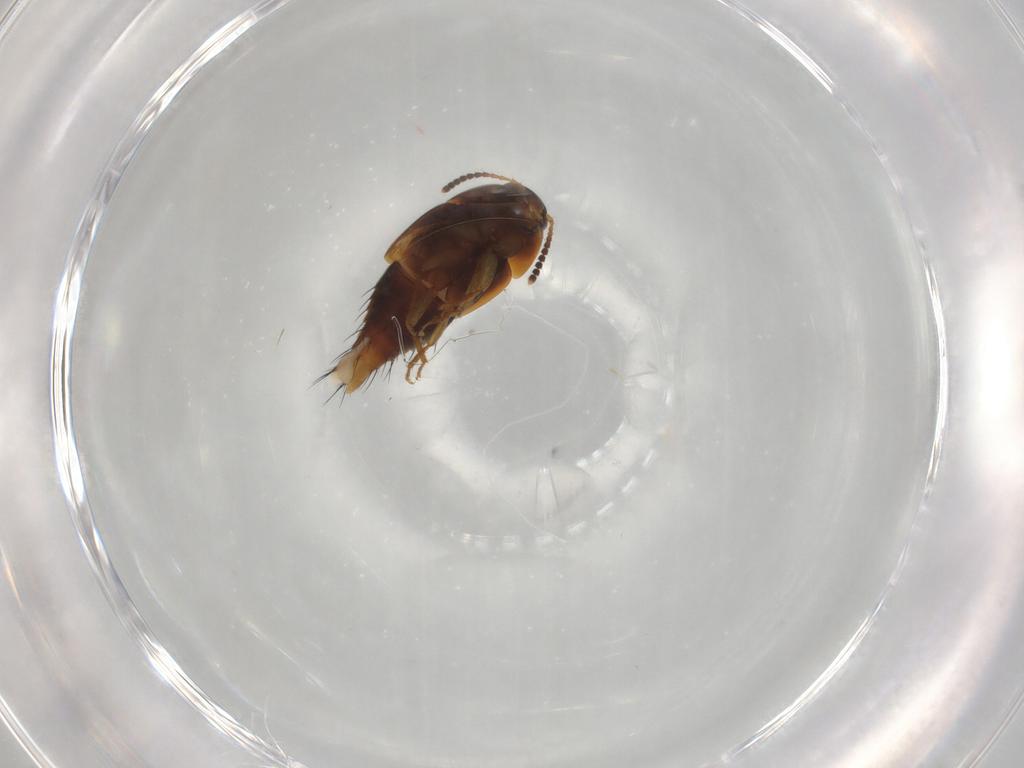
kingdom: Animalia
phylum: Arthropoda
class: Insecta
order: Coleoptera
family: Staphylinidae
